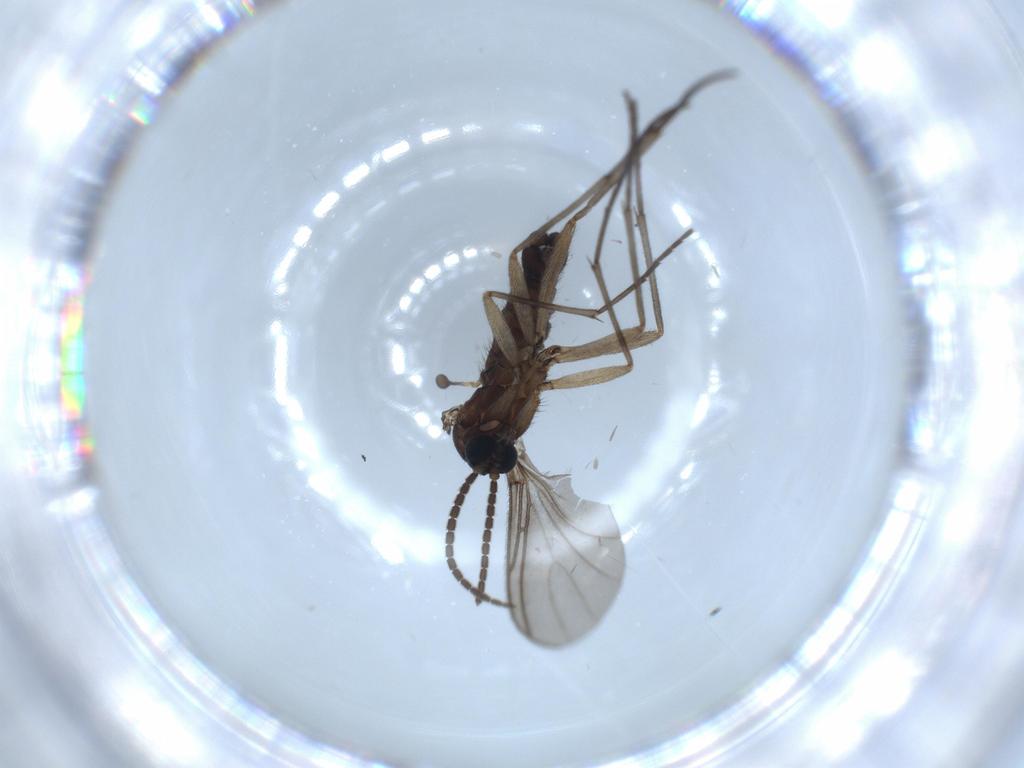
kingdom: Animalia
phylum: Arthropoda
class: Insecta
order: Diptera
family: Sciaridae
